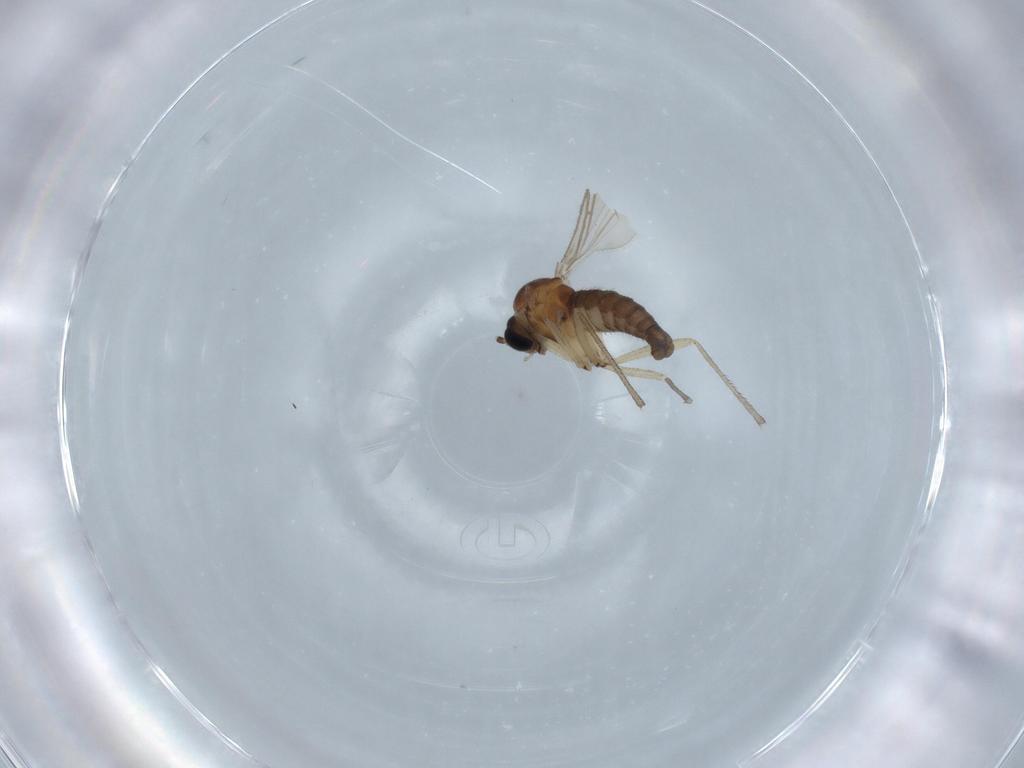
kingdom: Animalia
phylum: Arthropoda
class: Insecta
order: Diptera
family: Sciaridae
